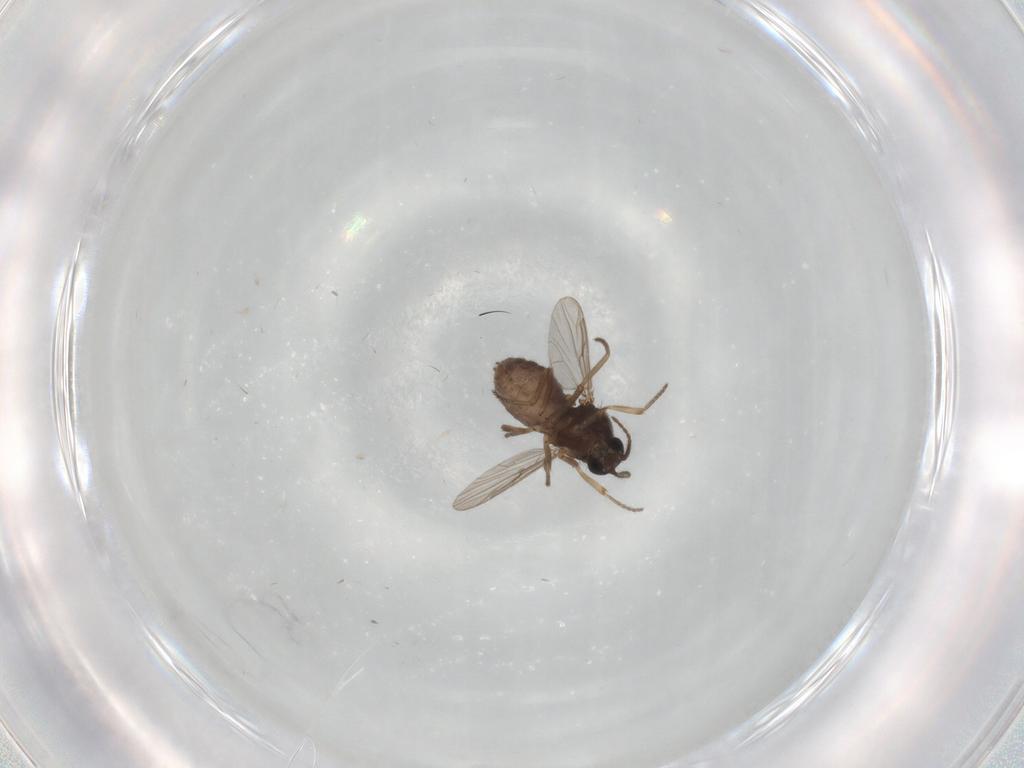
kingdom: Animalia
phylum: Arthropoda
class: Insecta
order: Diptera
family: Ceratopogonidae
